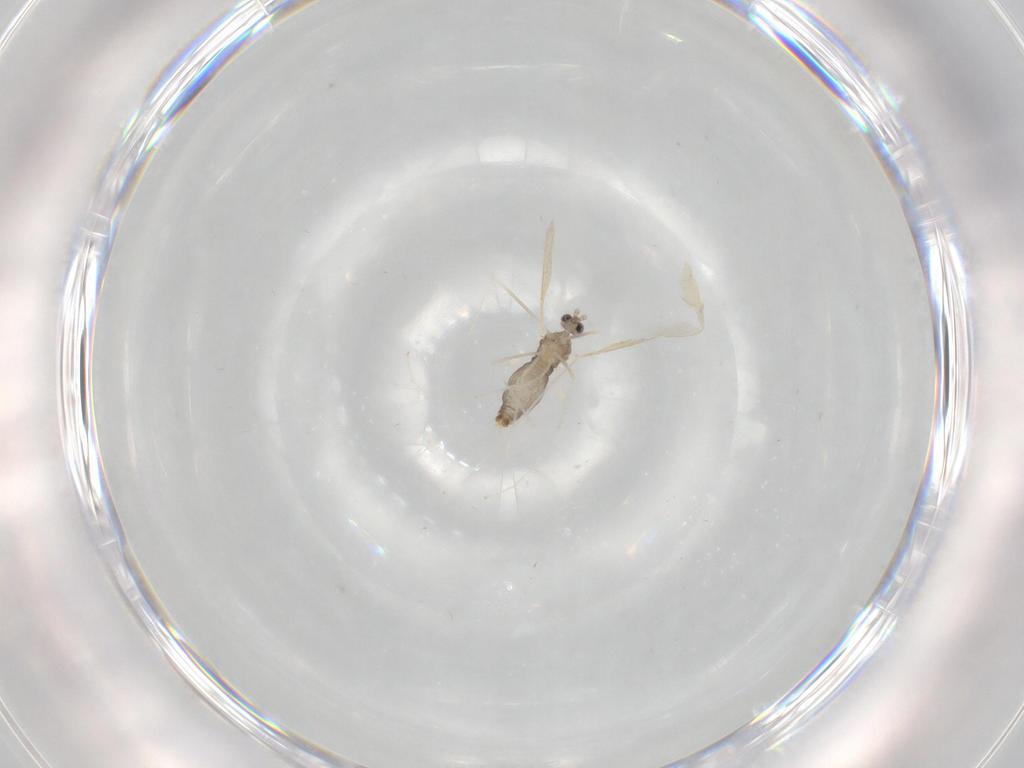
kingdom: Animalia
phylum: Arthropoda
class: Insecta
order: Diptera
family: Cecidomyiidae
